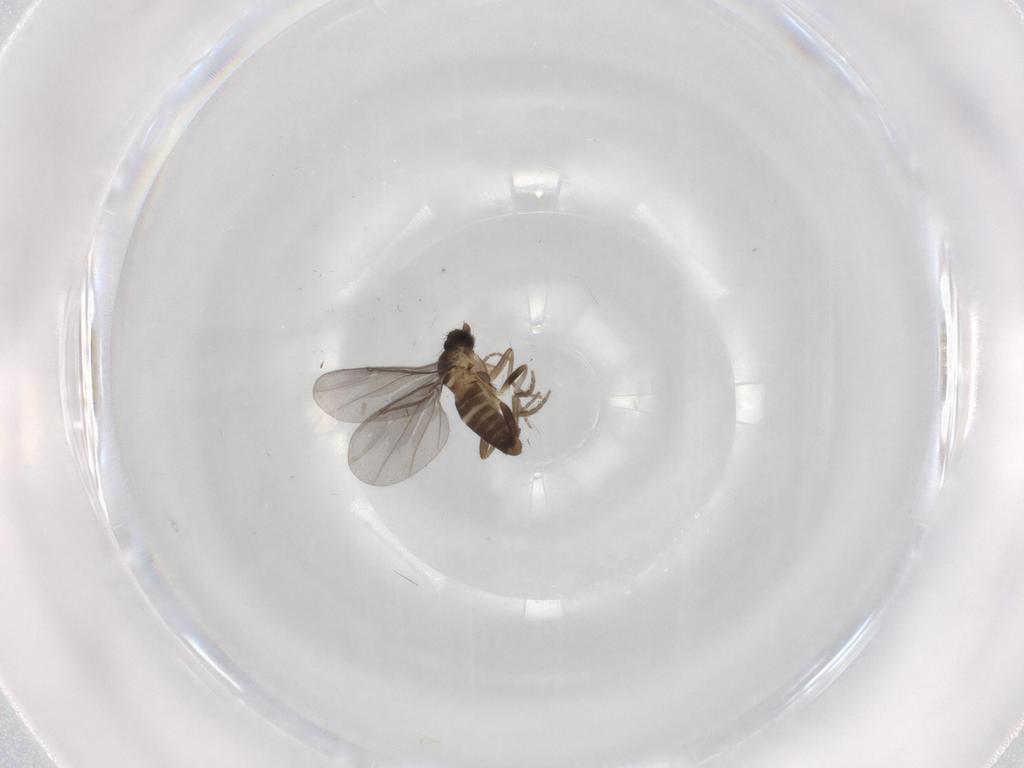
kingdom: Animalia
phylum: Arthropoda
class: Insecta
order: Diptera
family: Phoridae
